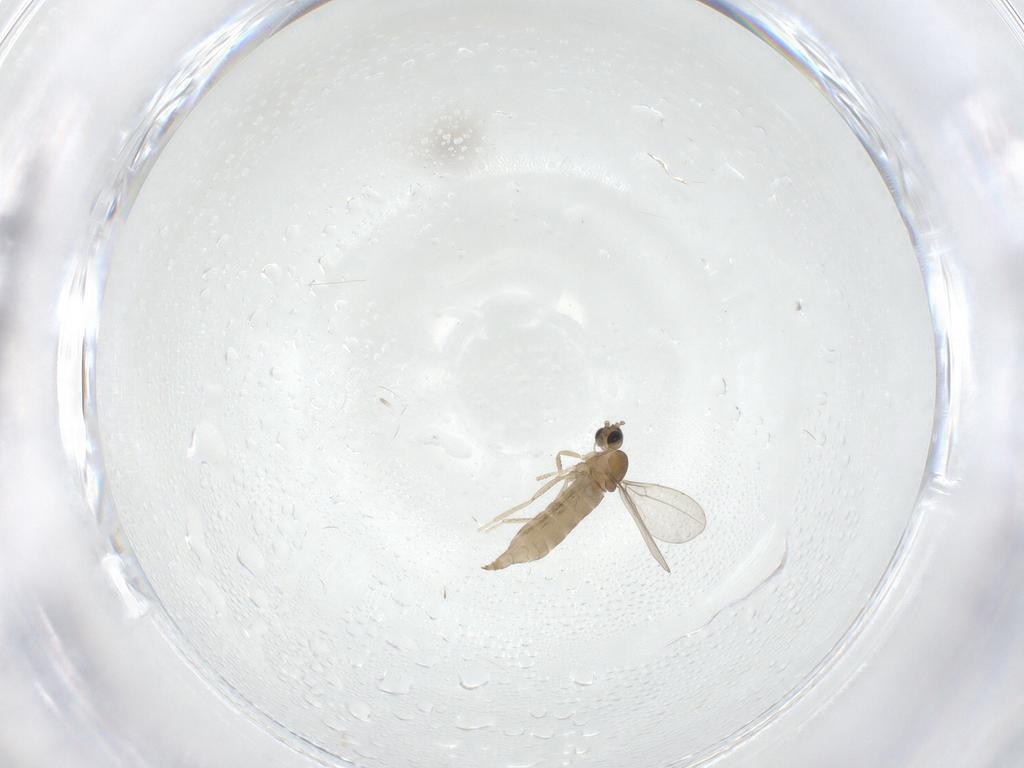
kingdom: Animalia
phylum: Arthropoda
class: Insecta
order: Diptera
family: Cecidomyiidae
